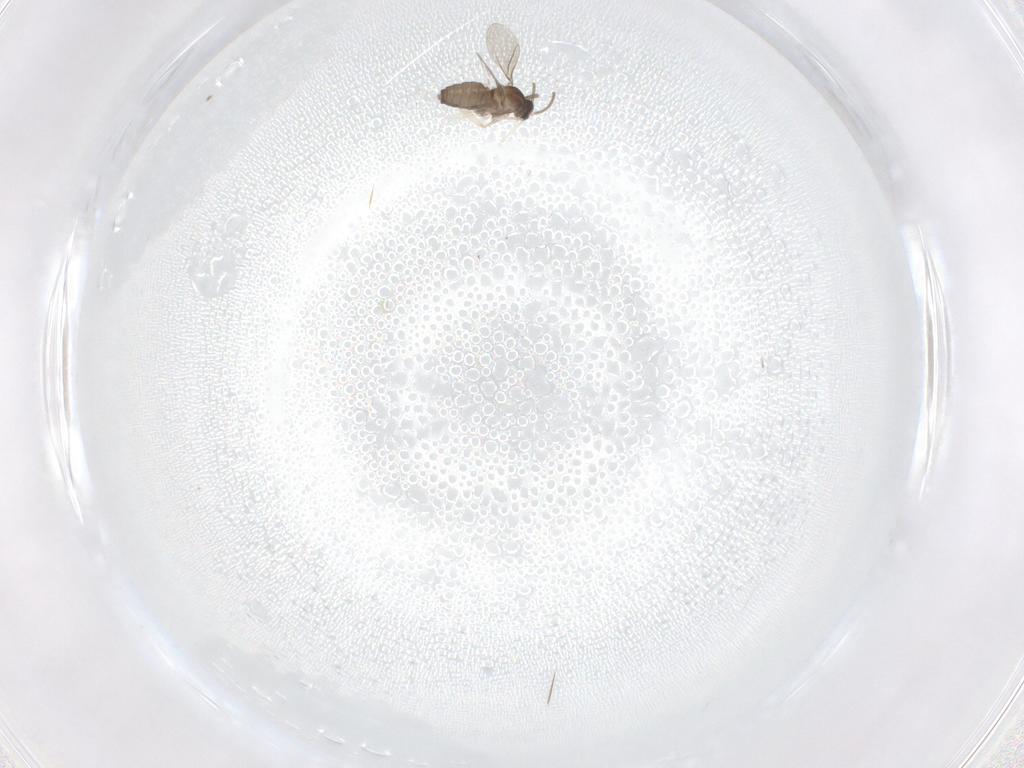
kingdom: Animalia
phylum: Arthropoda
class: Insecta
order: Diptera
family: Cecidomyiidae
